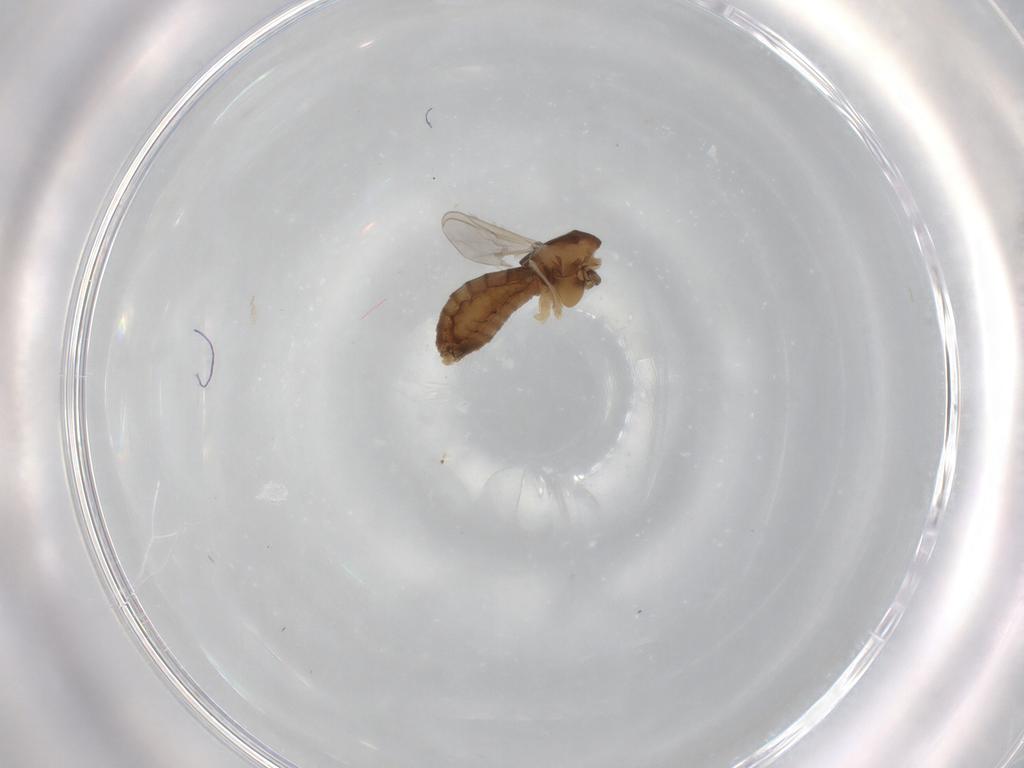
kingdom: Animalia
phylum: Arthropoda
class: Insecta
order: Diptera
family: Chironomidae
